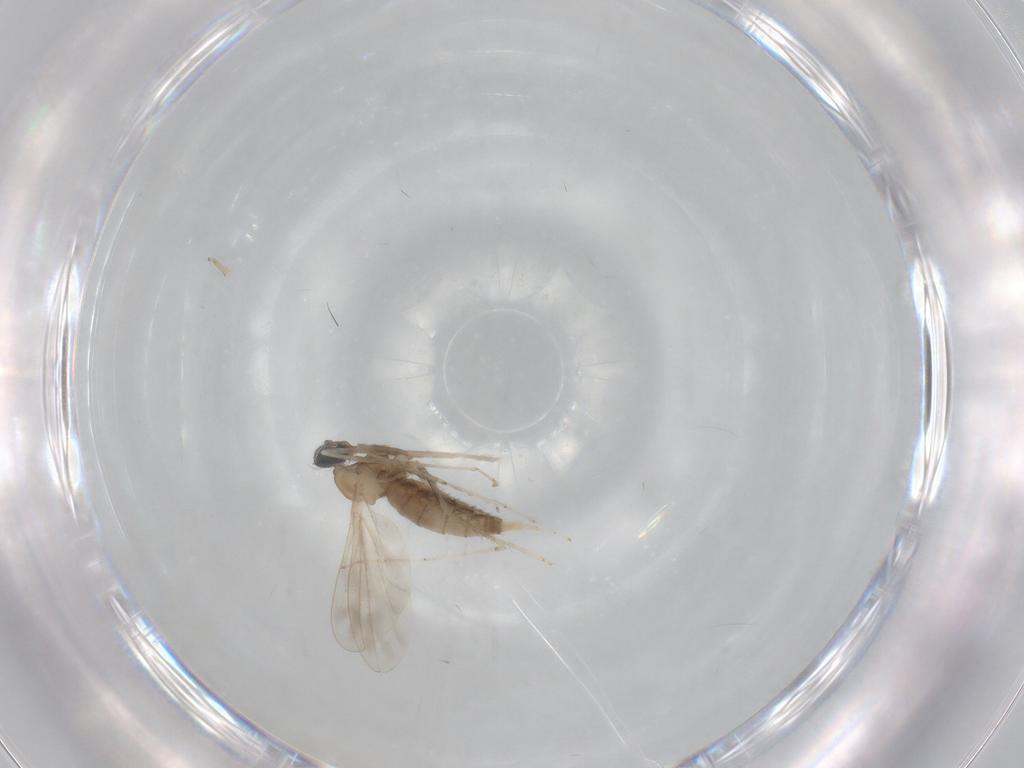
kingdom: Animalia
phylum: Arthropoda
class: Insecta
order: Diptera
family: Cecidomyiidae
